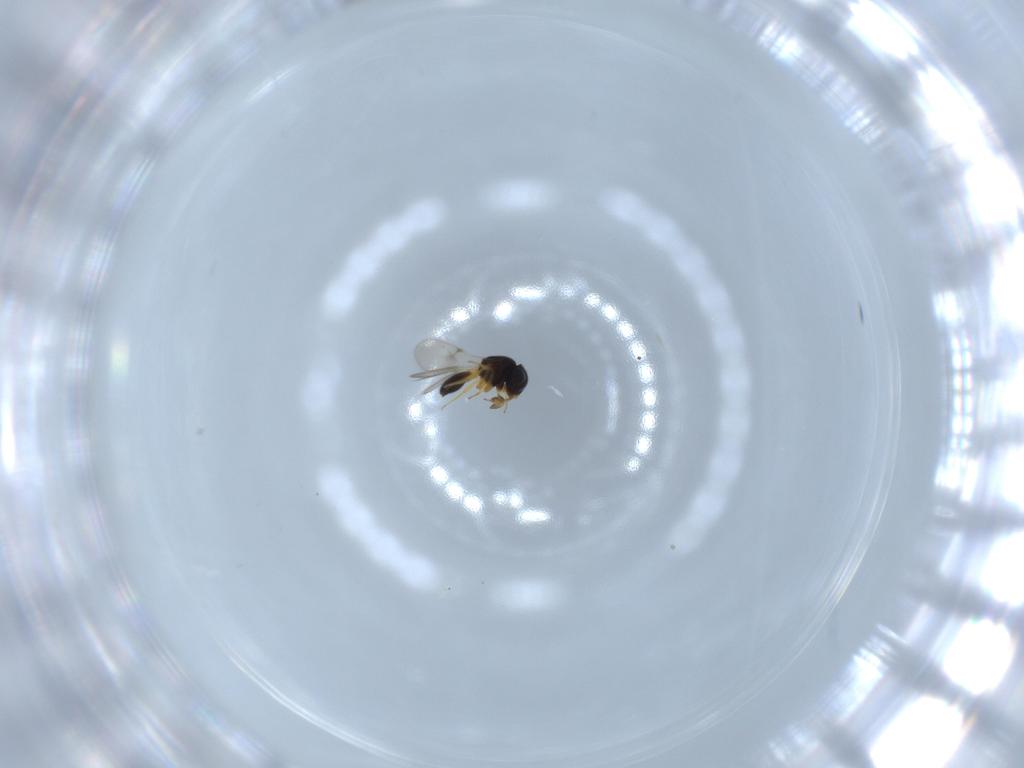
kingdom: Animalia
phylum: Arthropoda
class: Insecta
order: Hymenoptera
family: Scelionidae
